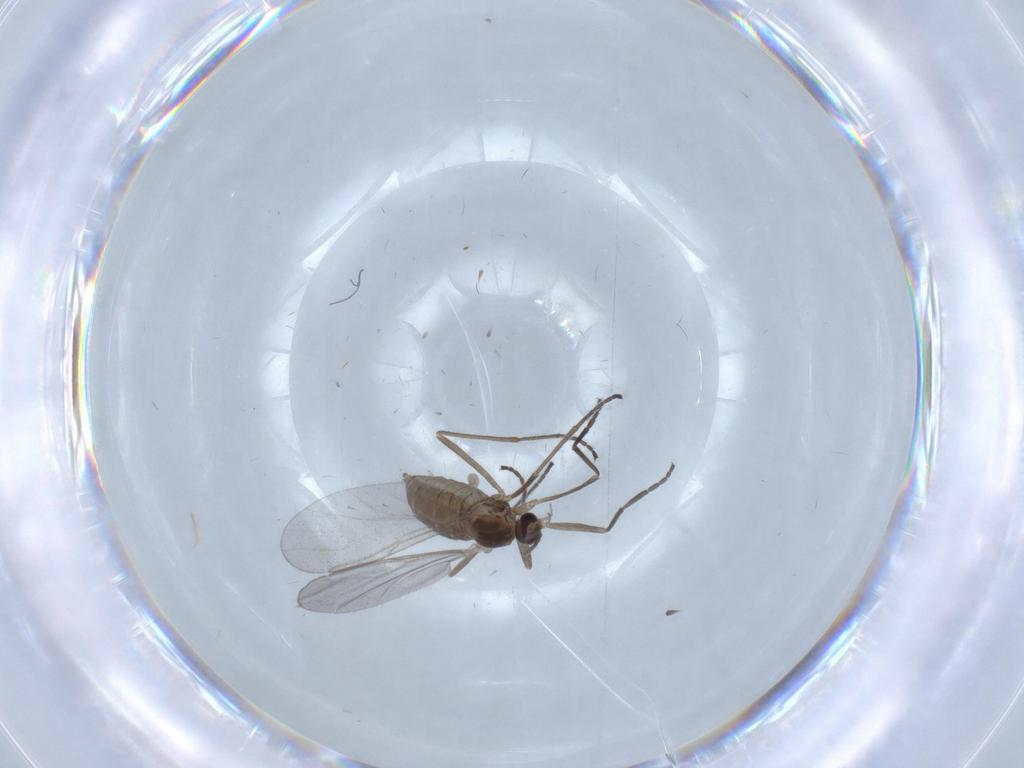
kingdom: Animalia
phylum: Arthropoda
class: Insecta
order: Diptera
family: Cecidomyiidae
